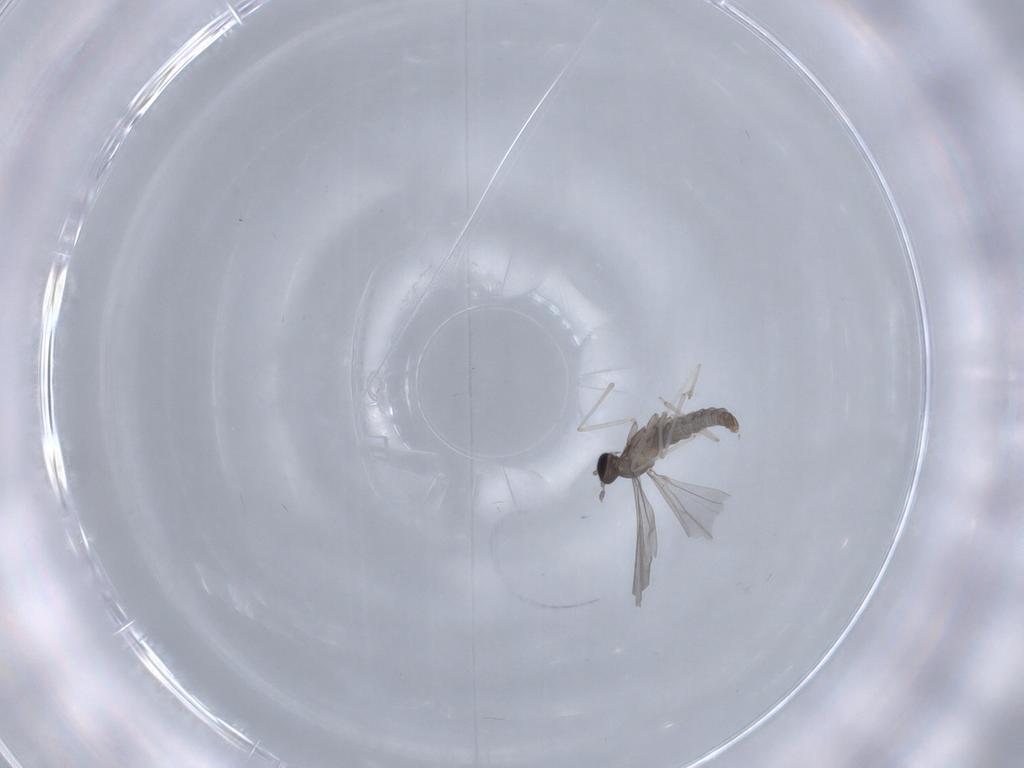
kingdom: Animalia
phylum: Arthropoda
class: Insecta
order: Diptera
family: Cecidomyiidae
